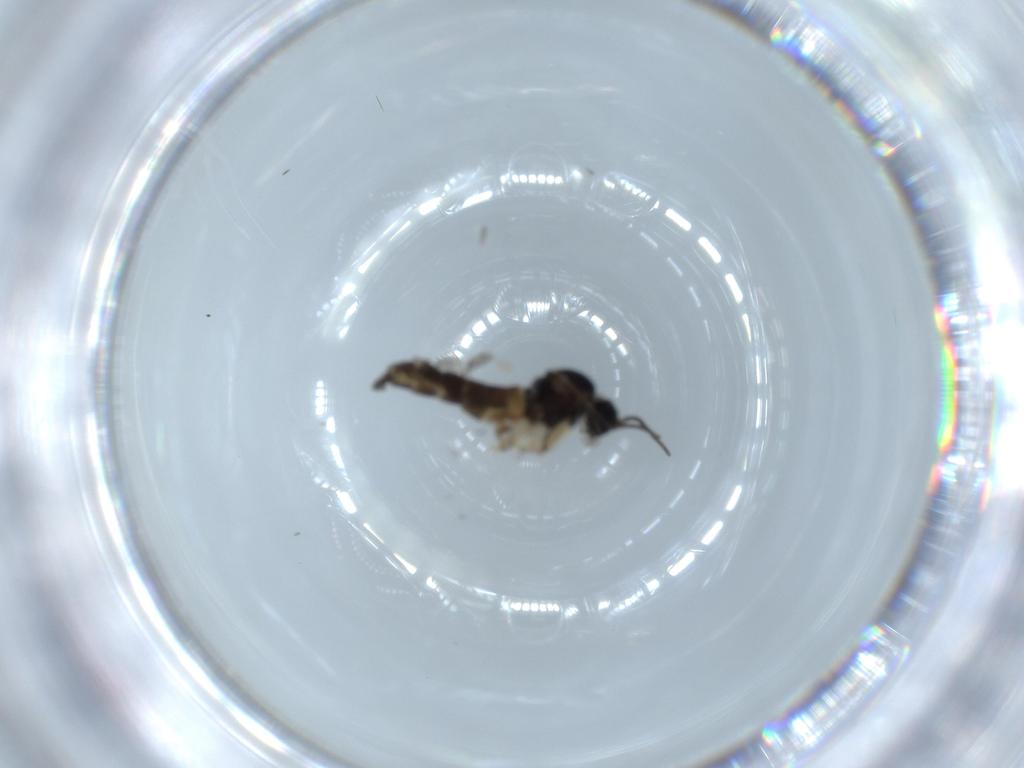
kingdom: Animalia
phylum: Arthropoda
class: Insecta
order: Diptera
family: Sciaridae
